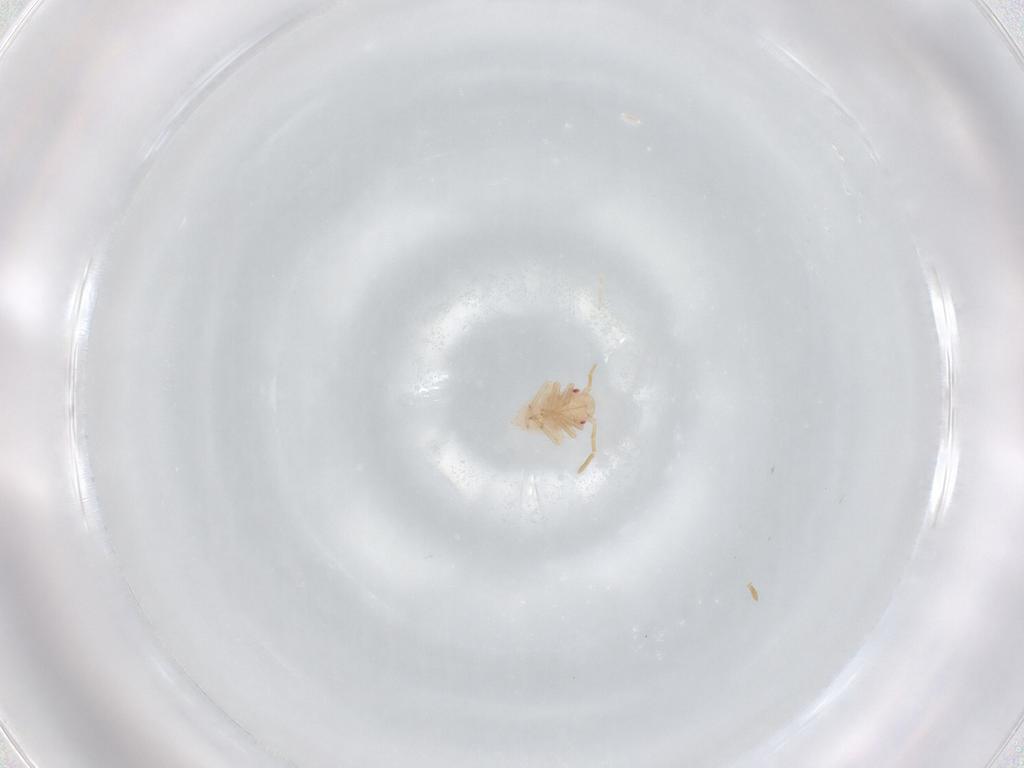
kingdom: Animalia
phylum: Arthropoda
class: Insecta
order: Hemiptera
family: Miridae
